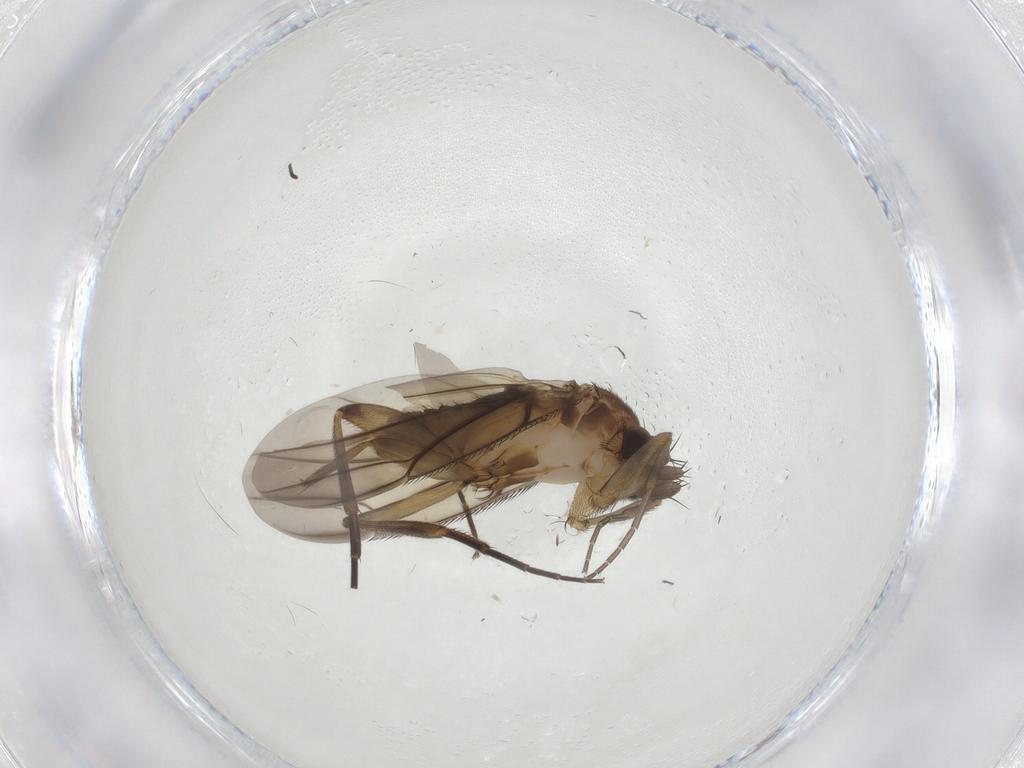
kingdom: Animalia
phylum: Arthropoda
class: Insecta
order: Diptera
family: Phoridae
